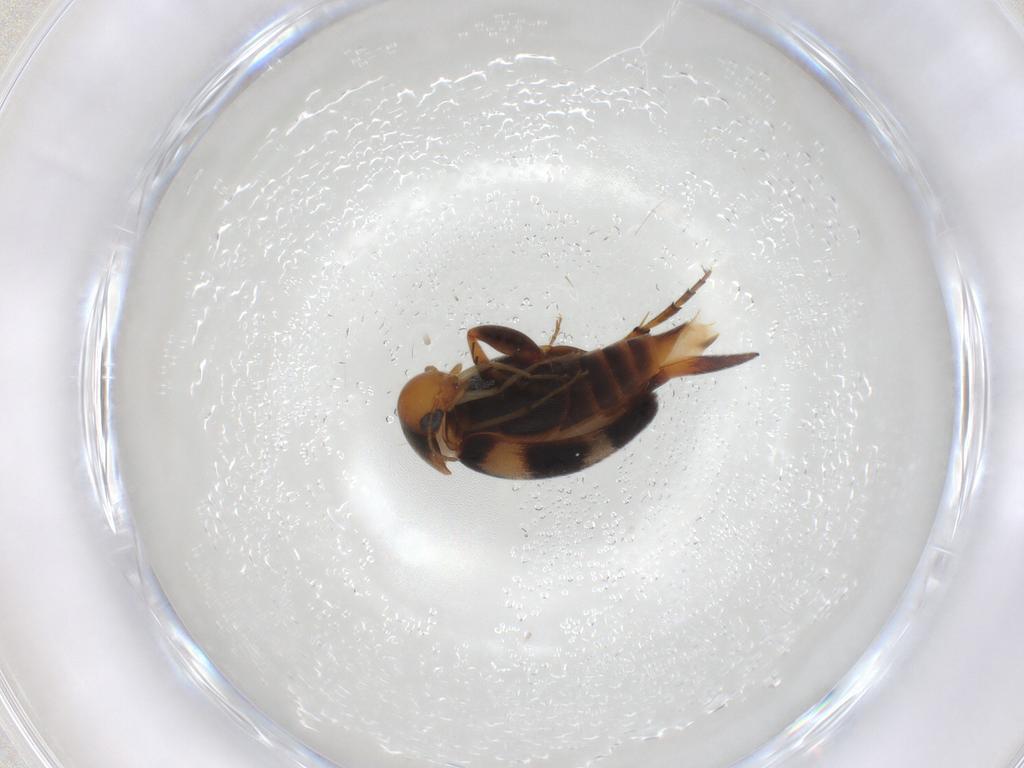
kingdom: Animalia
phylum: Arthropoda
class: Insecta
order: Coleoptera
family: Mordellidae
